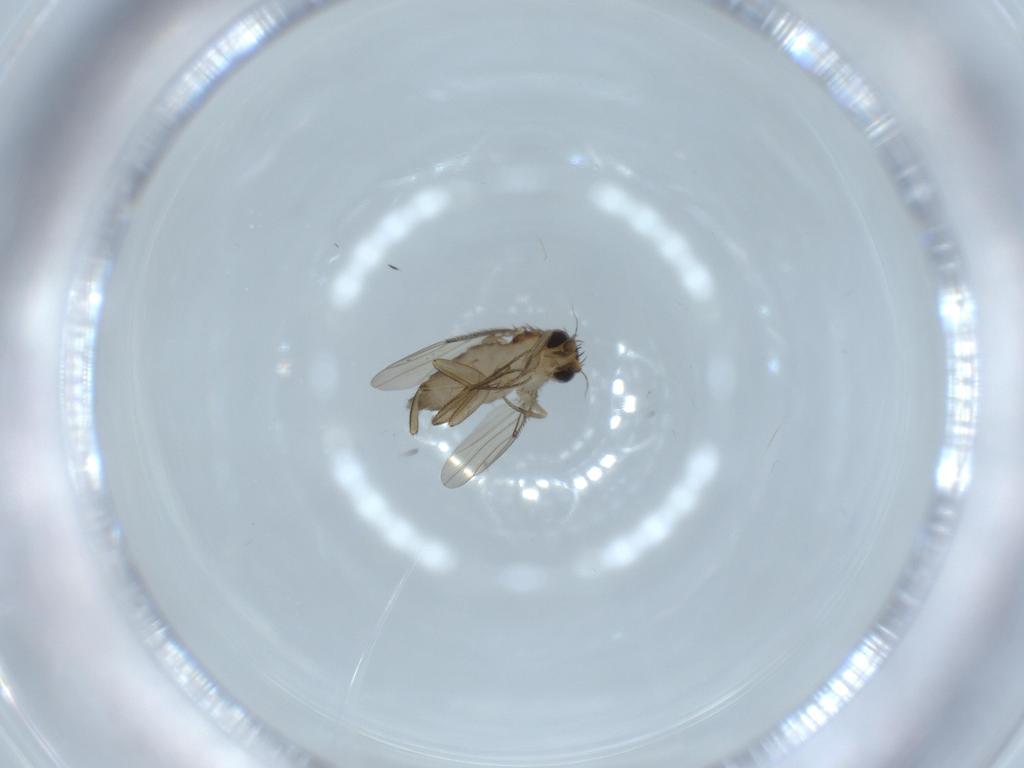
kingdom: Animalia
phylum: Arthropoda
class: Insecta
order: Diptera
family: Phoridae
